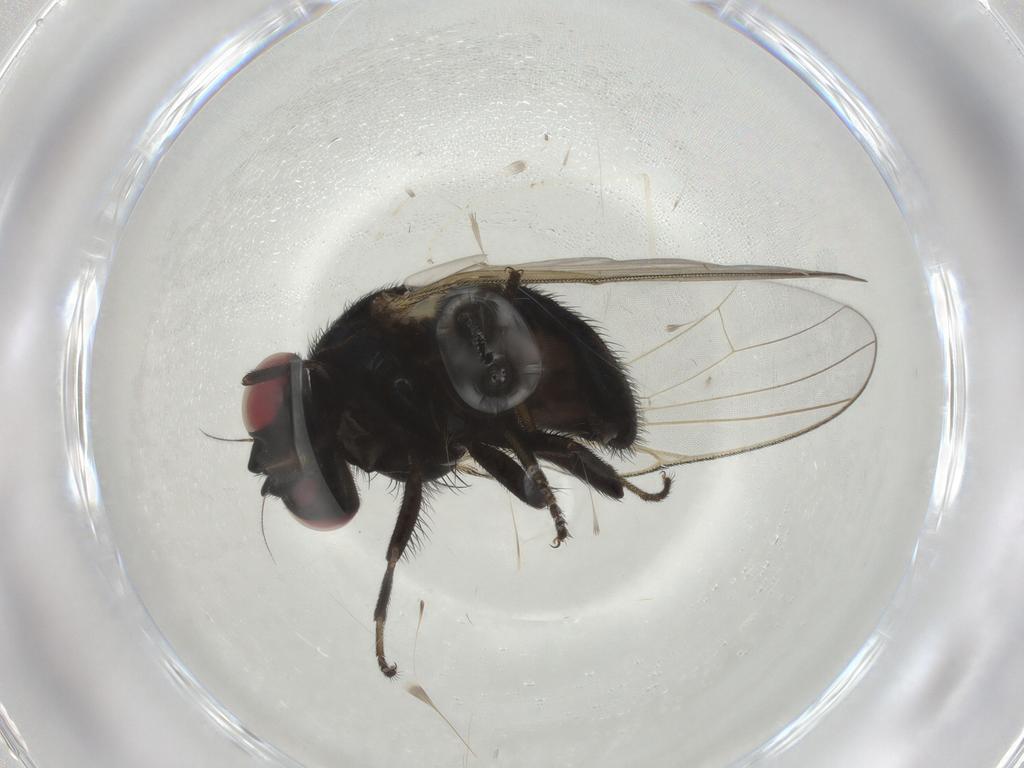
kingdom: Animalia
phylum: Arthropoda
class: Insecta
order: Diptera
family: Lonchaeidae
